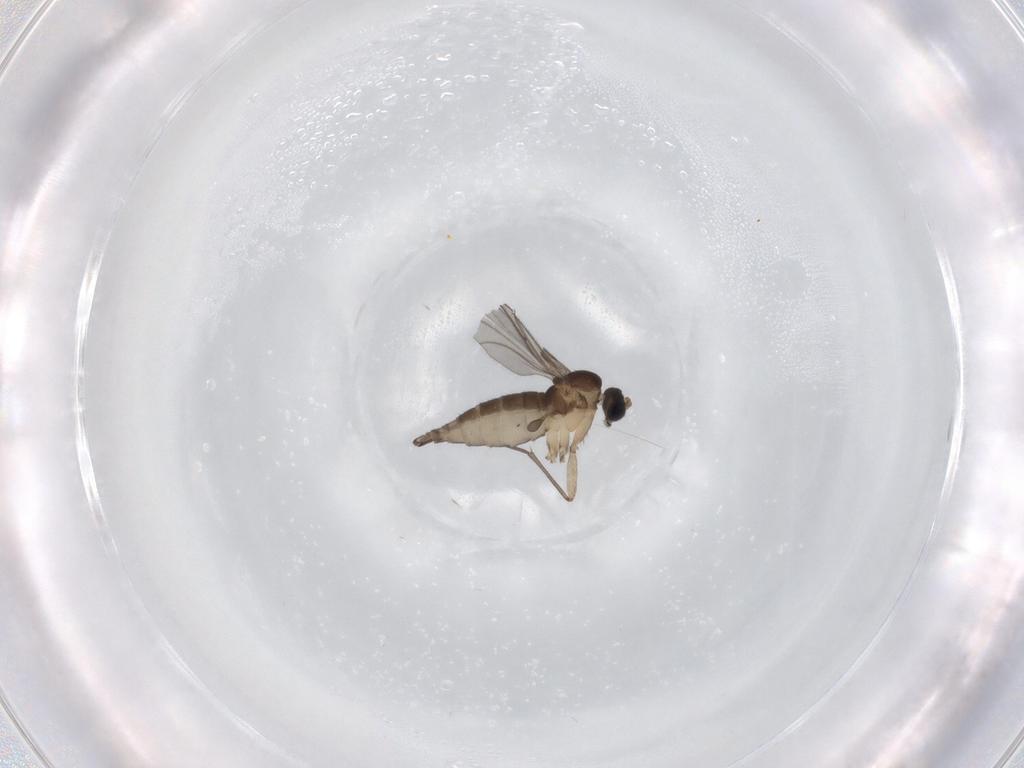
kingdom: Animalia
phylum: Arthropoda
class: Insecta
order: Diptera
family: Sciaridae
